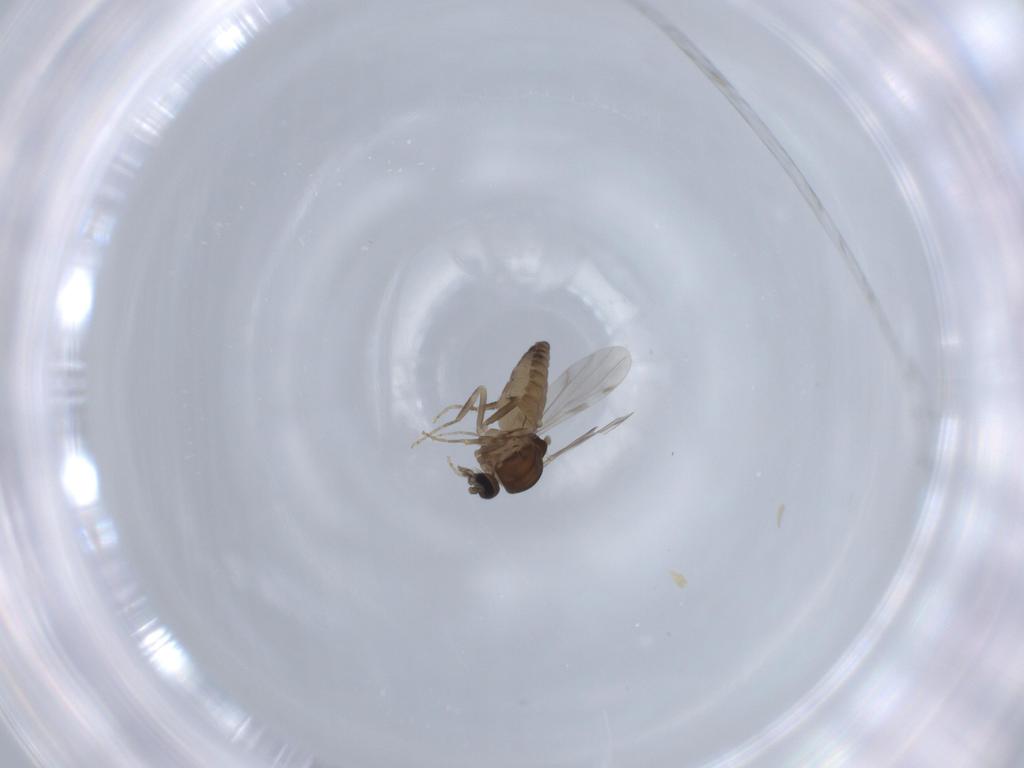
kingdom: Animalia
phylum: Arthropoda
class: Insecta
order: Diptera
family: Ceratopogonidae
